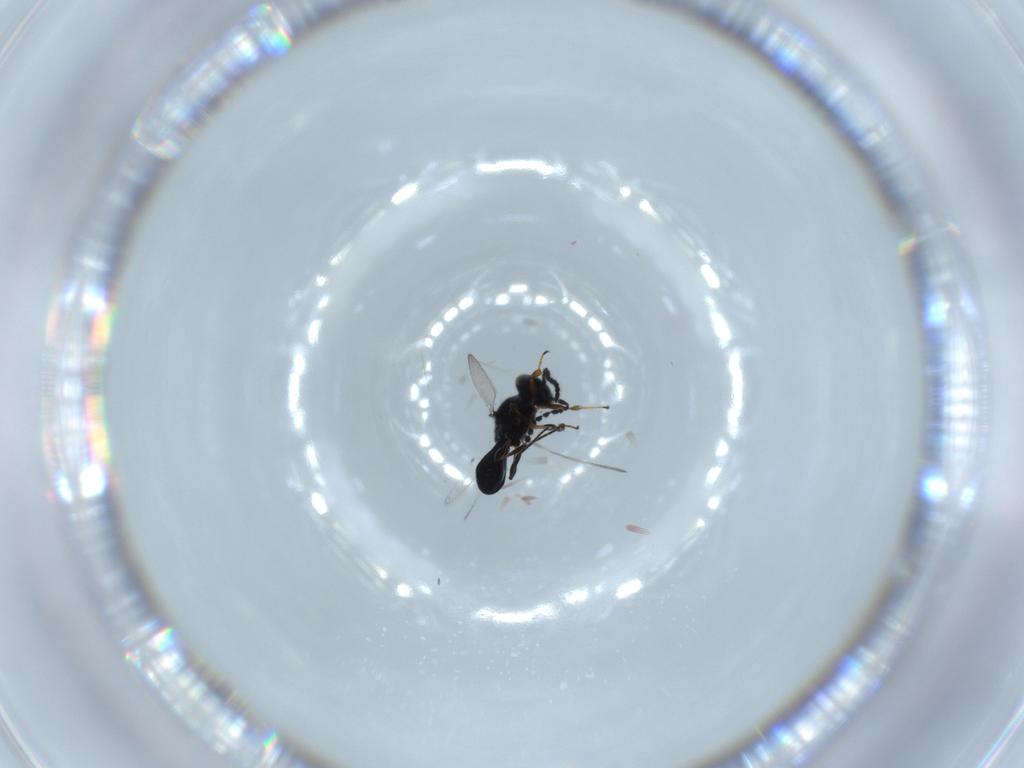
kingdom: Animalia
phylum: Arthropoda
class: Insecta
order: Hymenoptera
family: Platygastridae
